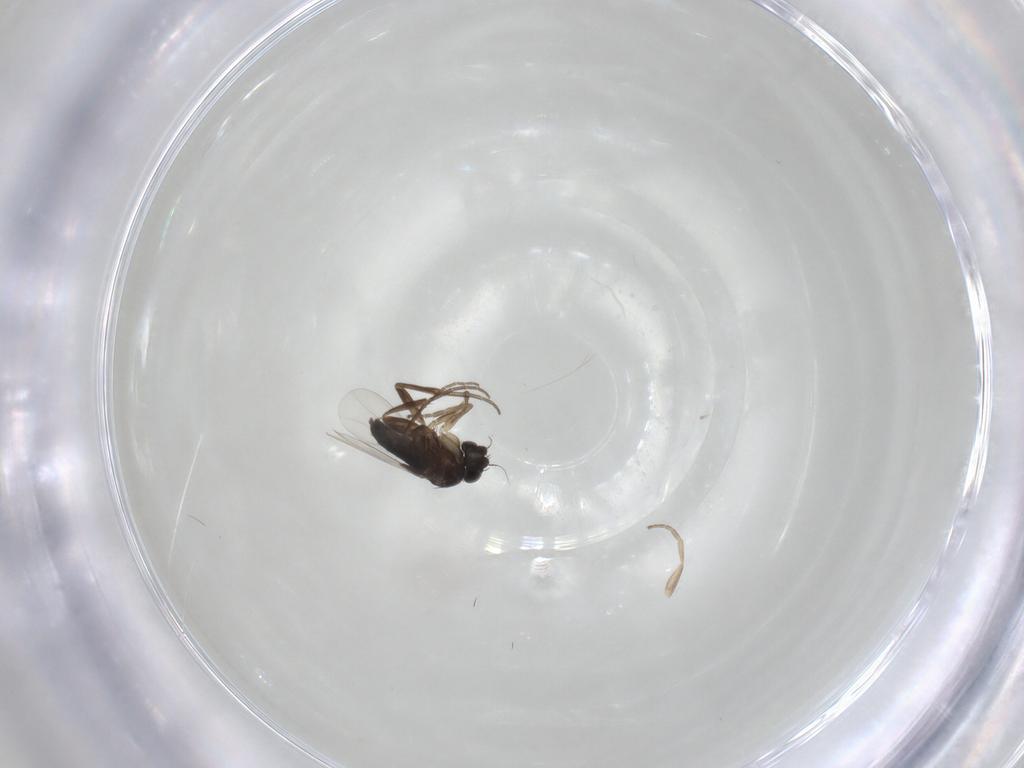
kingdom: Animalia
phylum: Arthropoda
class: Insecta
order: Diptera
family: Phoridae
